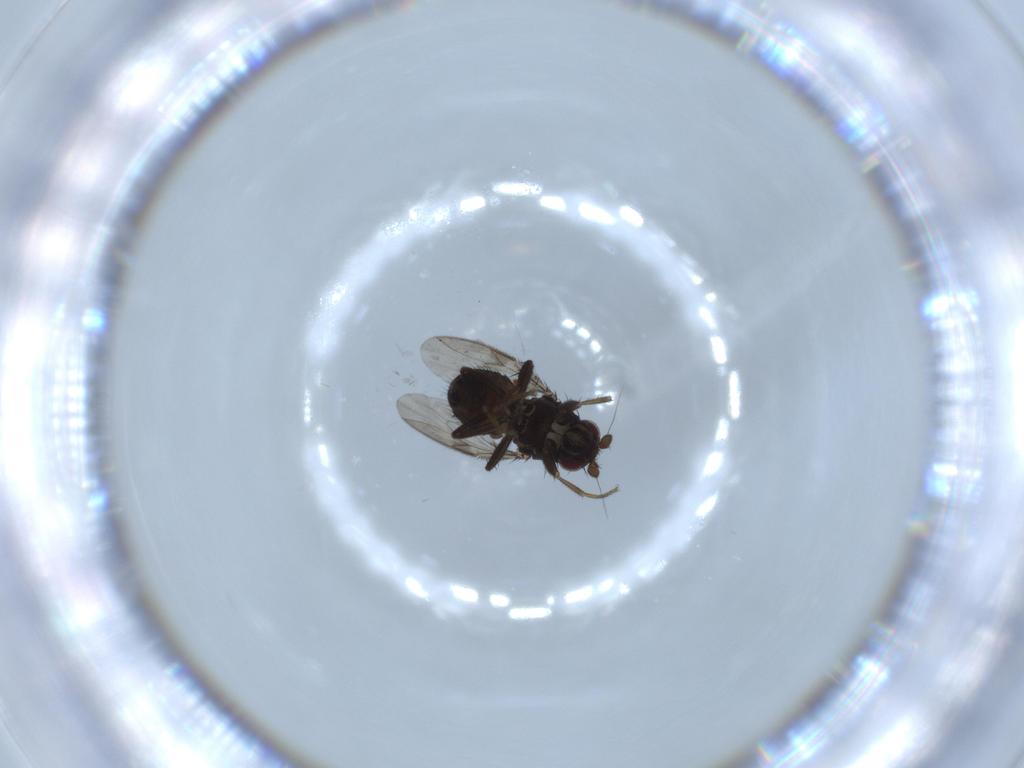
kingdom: Animalia
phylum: Arthropoda
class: Insecta
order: Diptera
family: Sphaeroceridae
